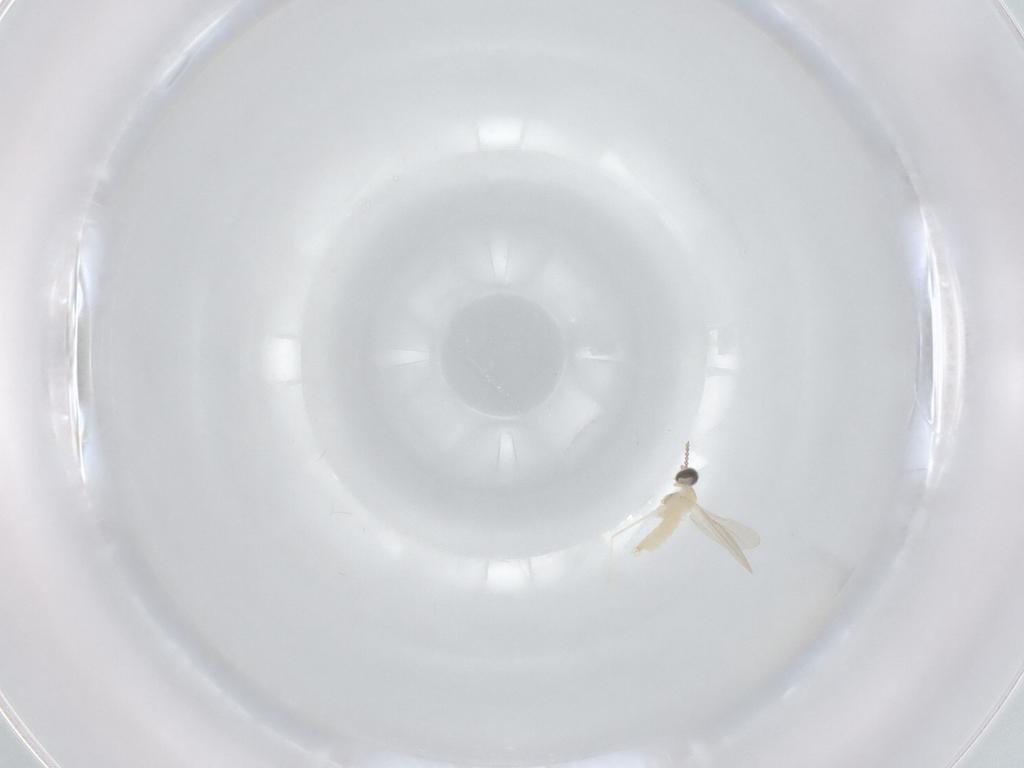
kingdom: Animalia
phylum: Arthropoda
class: Insecta
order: Diptera
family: Cecidomyiidae
